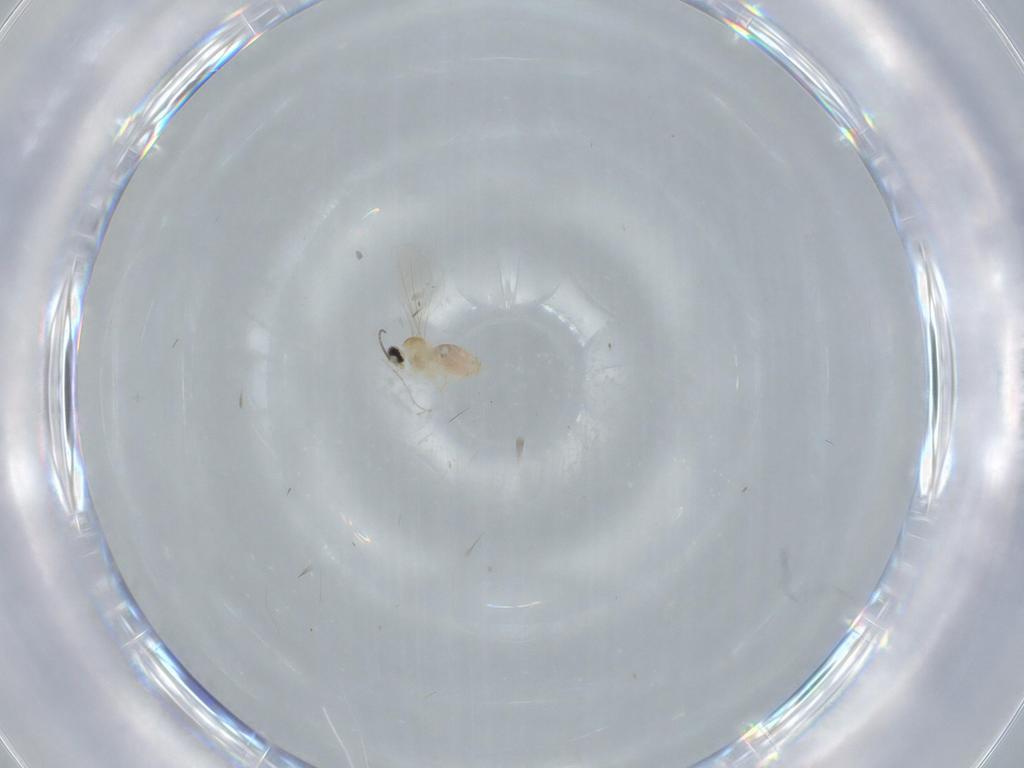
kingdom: Animalia
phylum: Arthropoda
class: Insecta
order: Diptera
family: Cecidomyiidae
